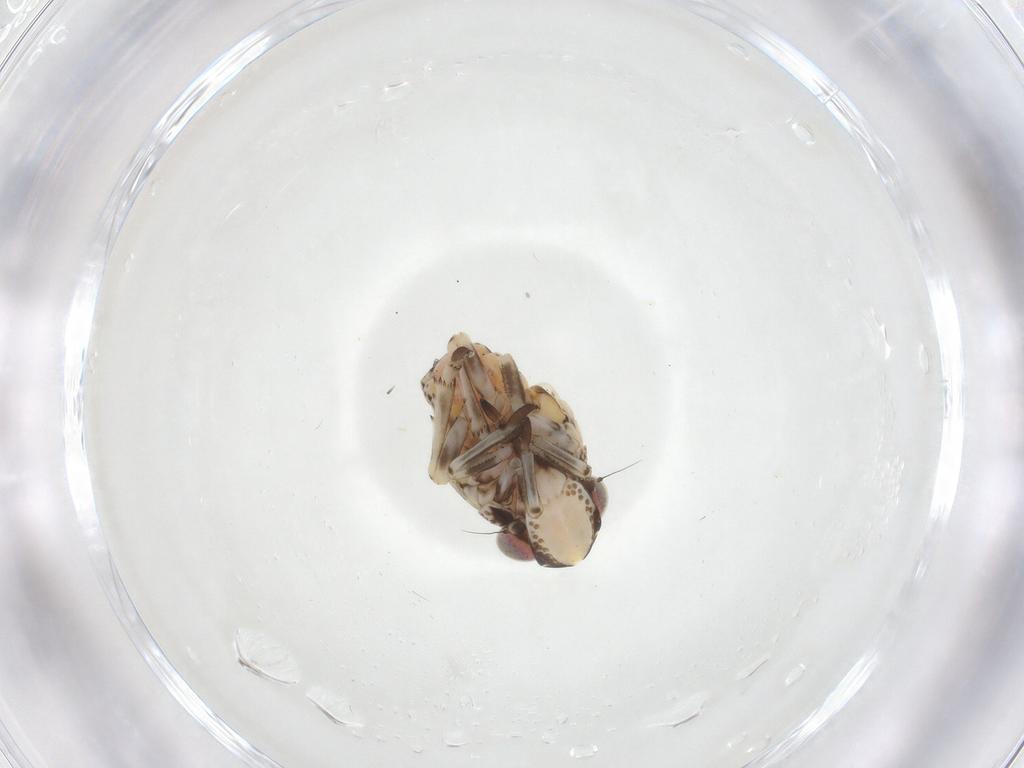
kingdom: Animalia
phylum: Arthropoda
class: Insecta
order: Hemiptera
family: Tropiduchidae
